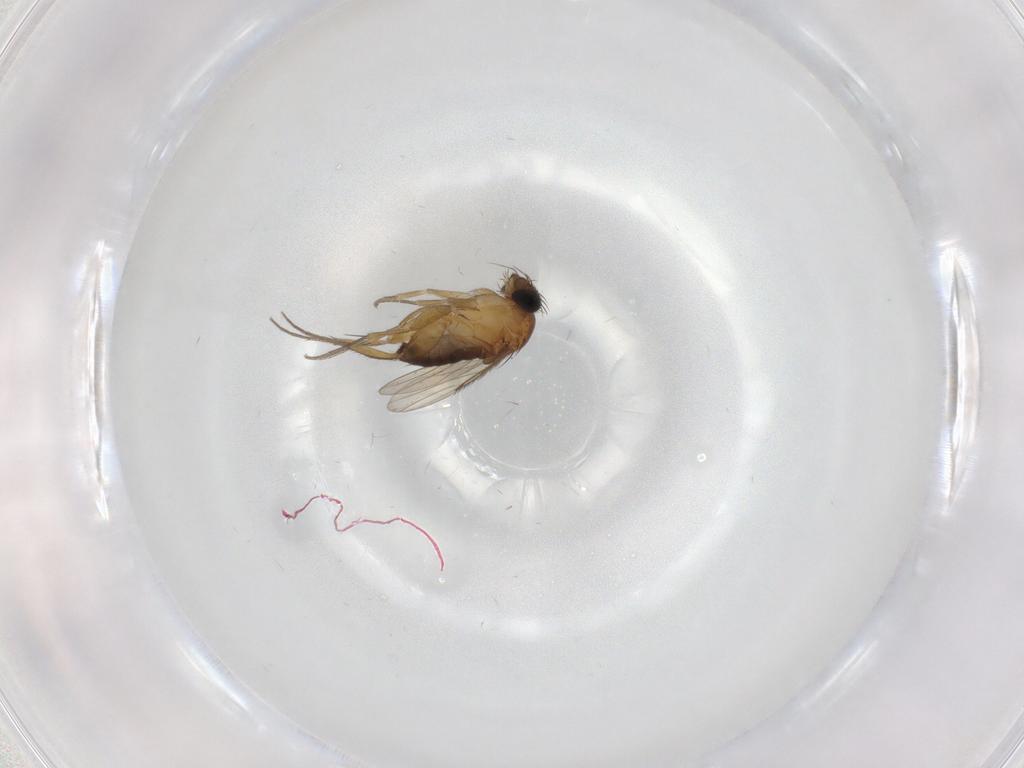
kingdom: Animalia
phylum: Arthropoda
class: Insecta
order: Diptera
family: Phoridae
